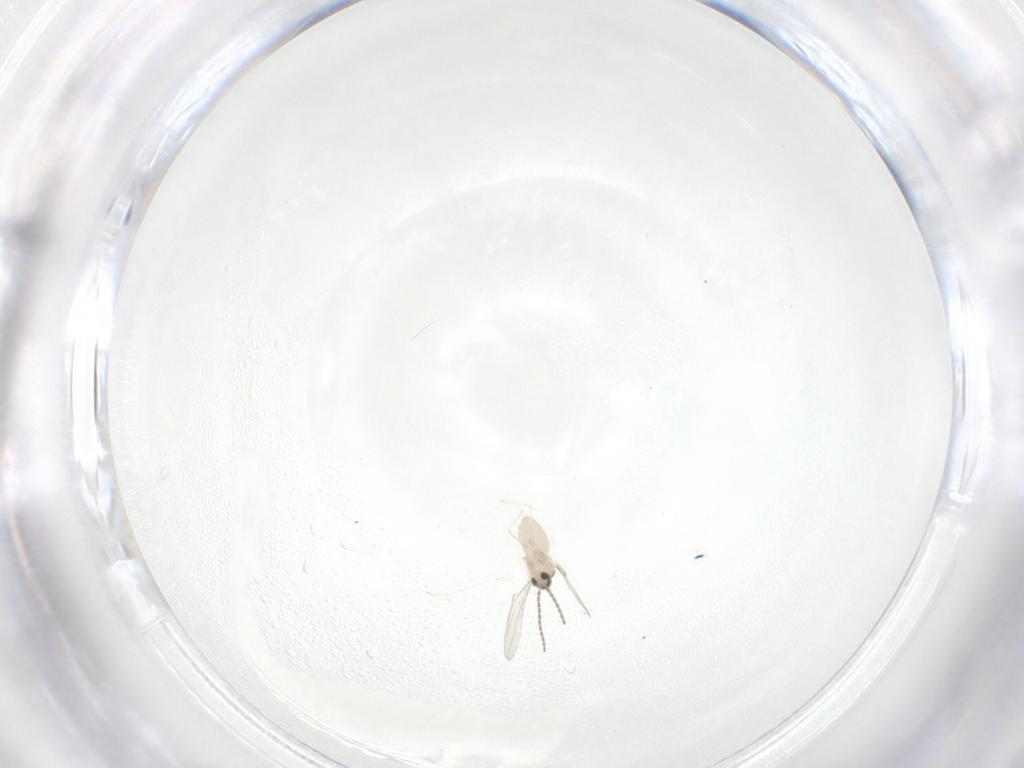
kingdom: Animalia
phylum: Arthropoda
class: Insecta
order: Diptera
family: Cecidomyiidae
